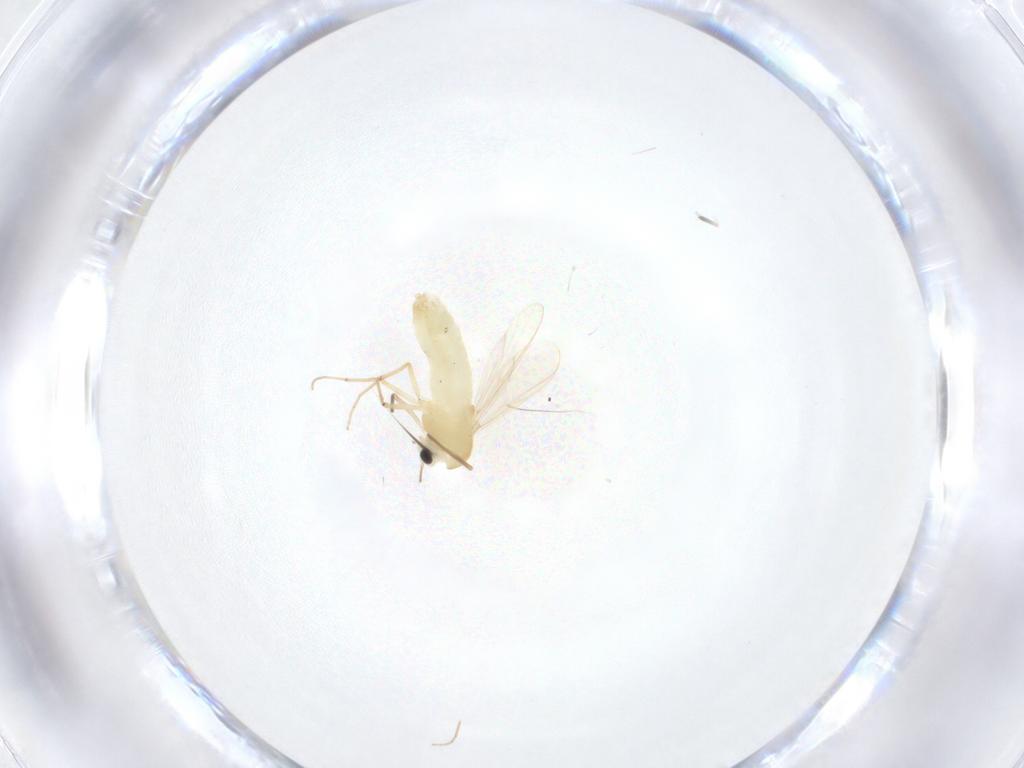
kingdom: Animalia
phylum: Arthropoda
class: Insecta
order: Diptera
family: Chironomidae
